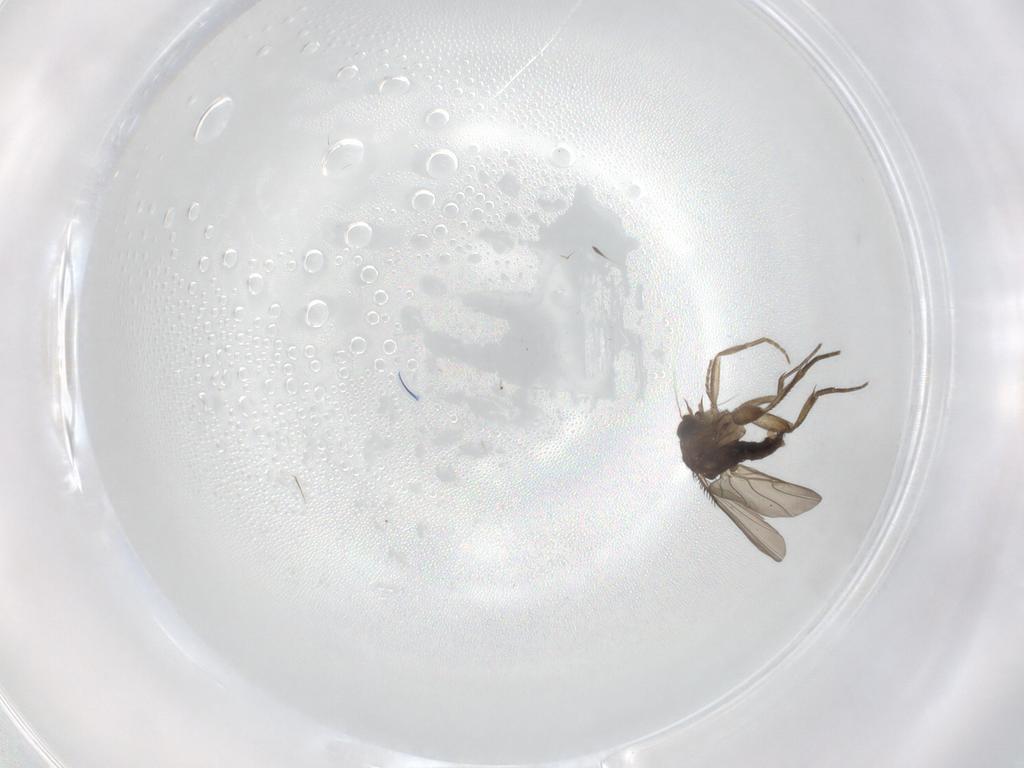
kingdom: Animalia
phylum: Arthropoda
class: Insecta
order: Diptera
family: Phoridae
